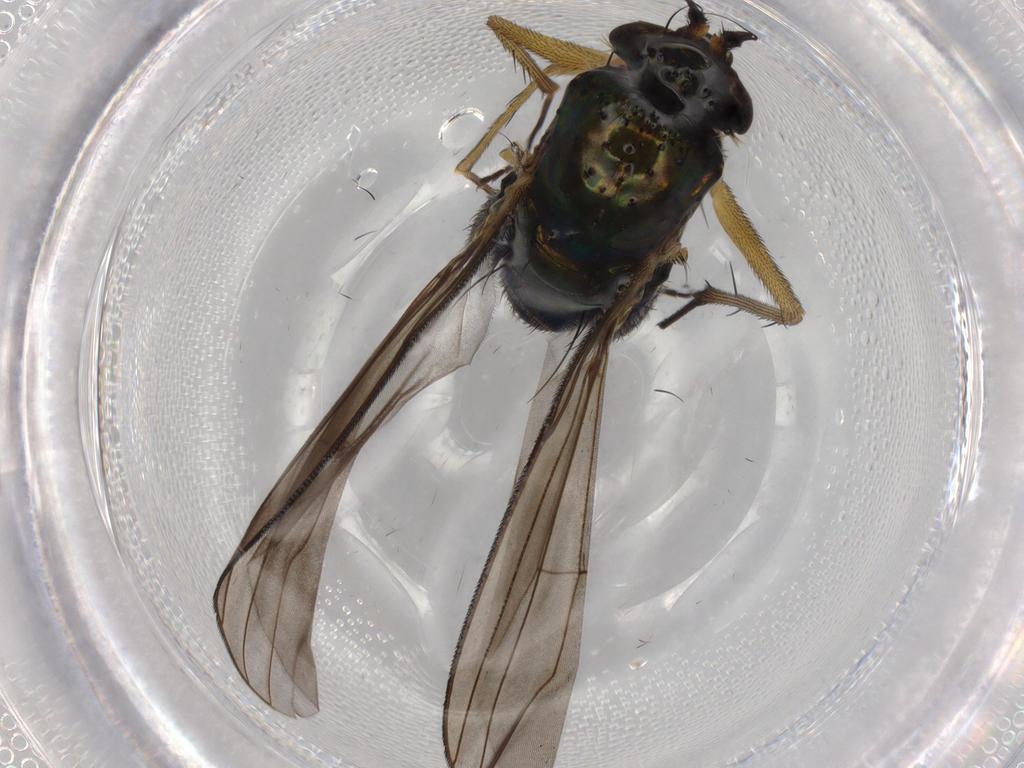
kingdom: Animalia
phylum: Arthropoda
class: Insecta
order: Diptera
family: Dolichopodidae
